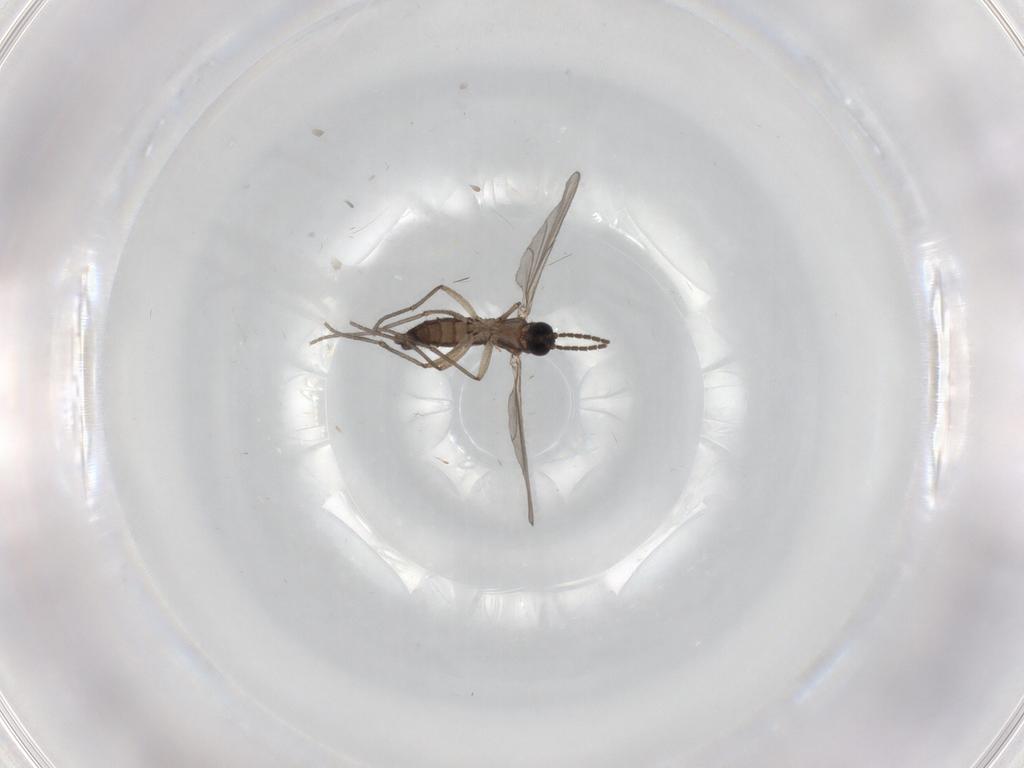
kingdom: Animalia
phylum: Arthropoda
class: Insecta
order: Diptera
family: Sciaridae
